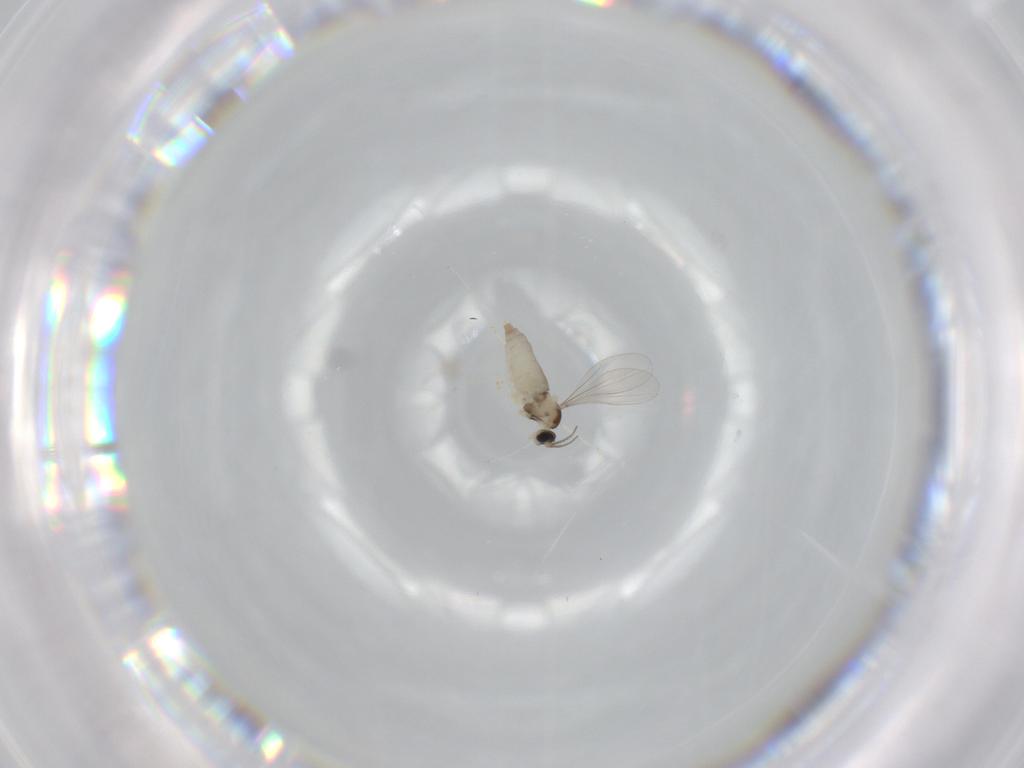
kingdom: Animalia
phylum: Arthropoda
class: Insecta
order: Diptera
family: Cecidomyiidae
